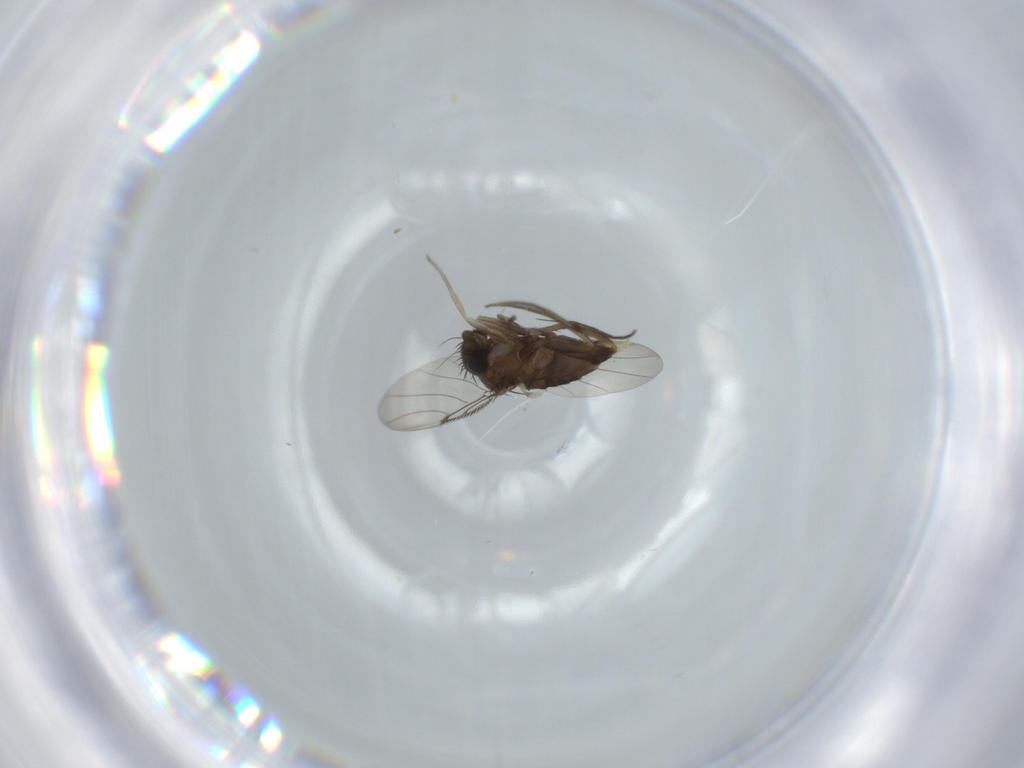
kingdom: Animalia
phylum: Arthropoda
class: Insecta
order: Diptera
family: Phoridae
